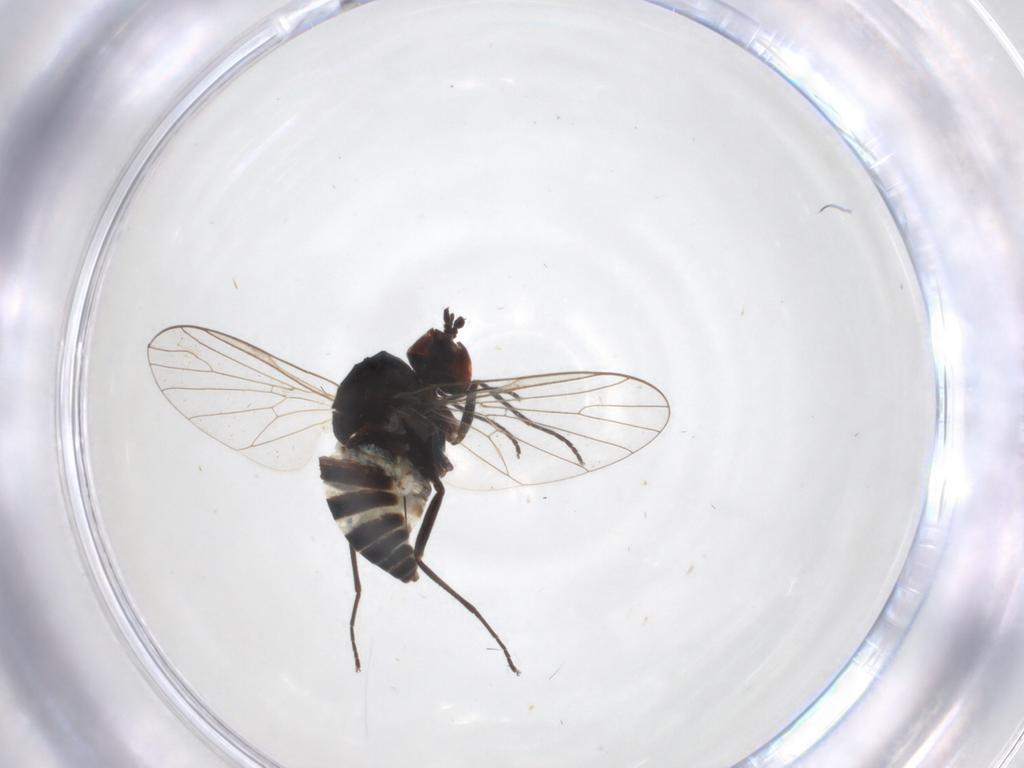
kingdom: Animalia
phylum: Arthropoda
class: Insecta
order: Diptera
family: Bombyliidae
